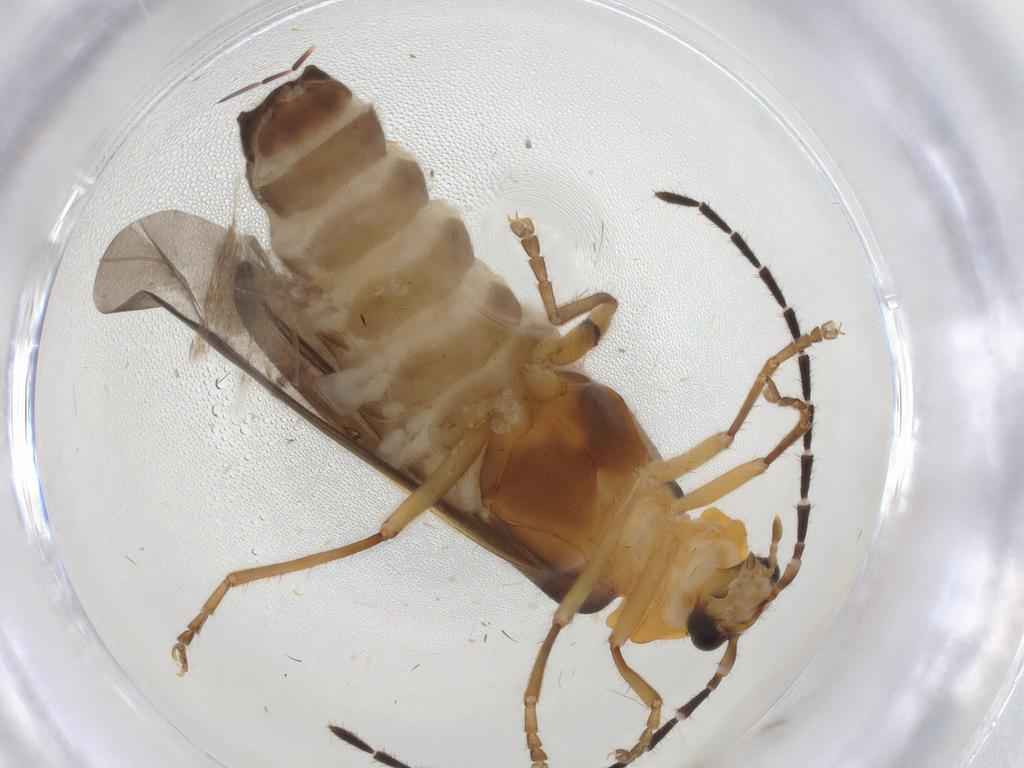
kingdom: Animalia
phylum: Arthropoda
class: Insecta
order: Coleoptera
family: Cantharidae
